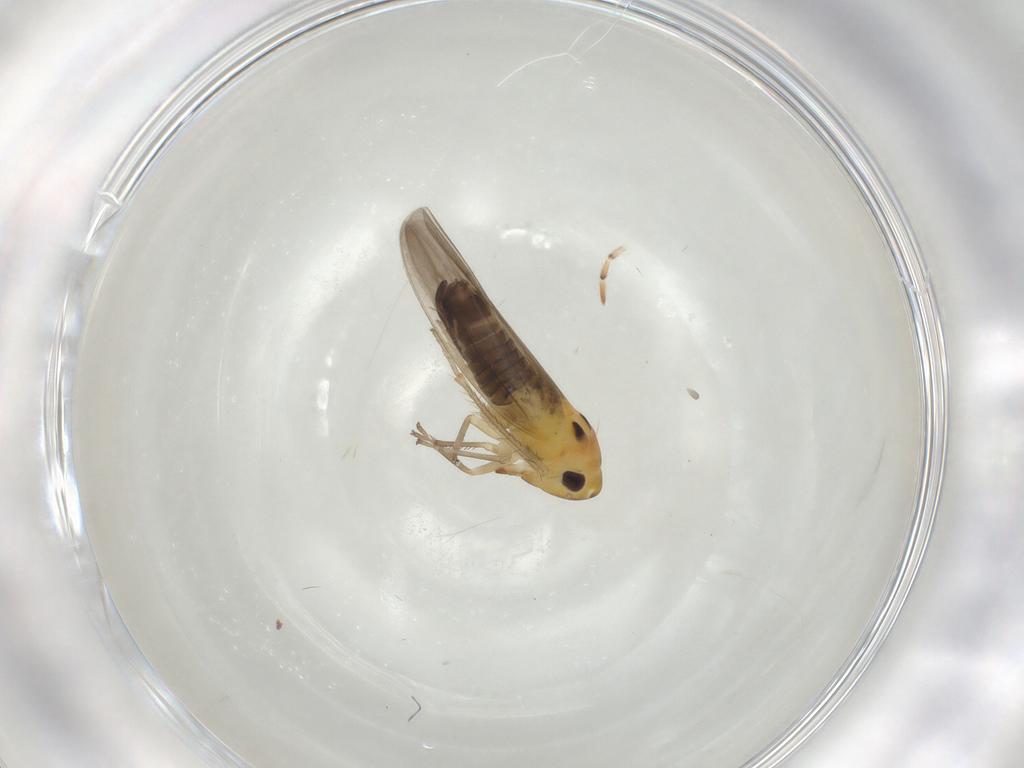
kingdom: Animalia
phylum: Arthropoda
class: Insecta
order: Hemiptera
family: Cicadellidae
